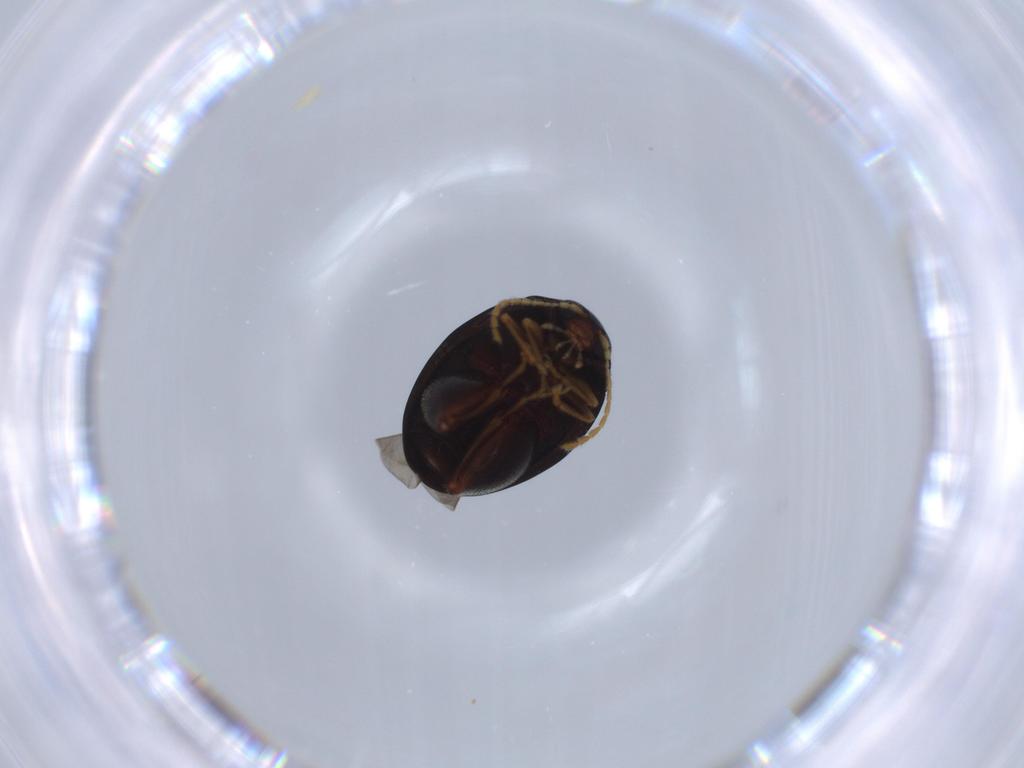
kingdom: Animalia
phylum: Arthropoda
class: Insecta
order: Coleoptera
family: Chrysomelidae
